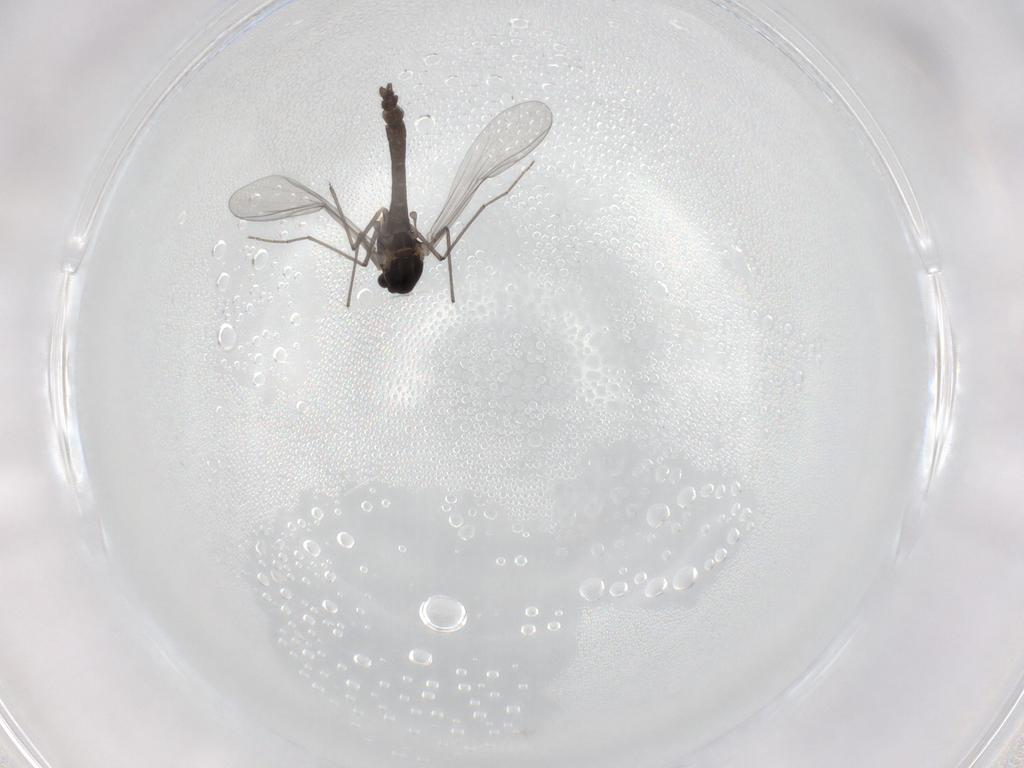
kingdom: Animalia
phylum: Arthropoda
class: Insecta
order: Diptera
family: Chironomidae
